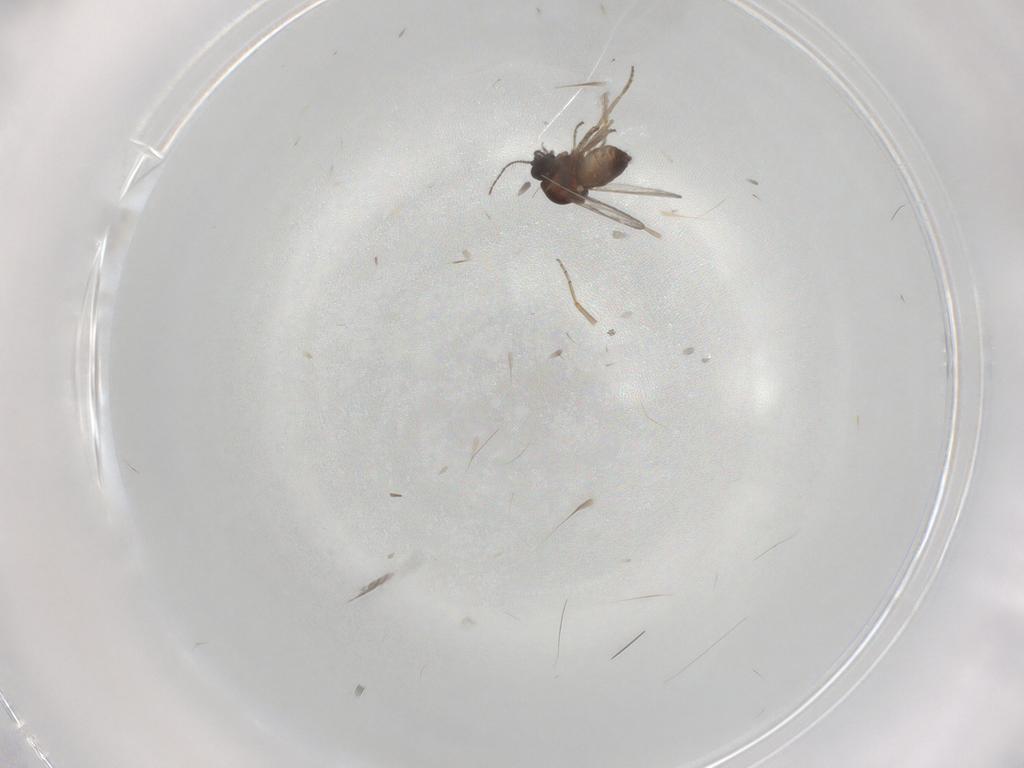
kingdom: Animalia
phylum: Arthropoda
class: Insecta
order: Diptera
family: Ceratopogonidae
